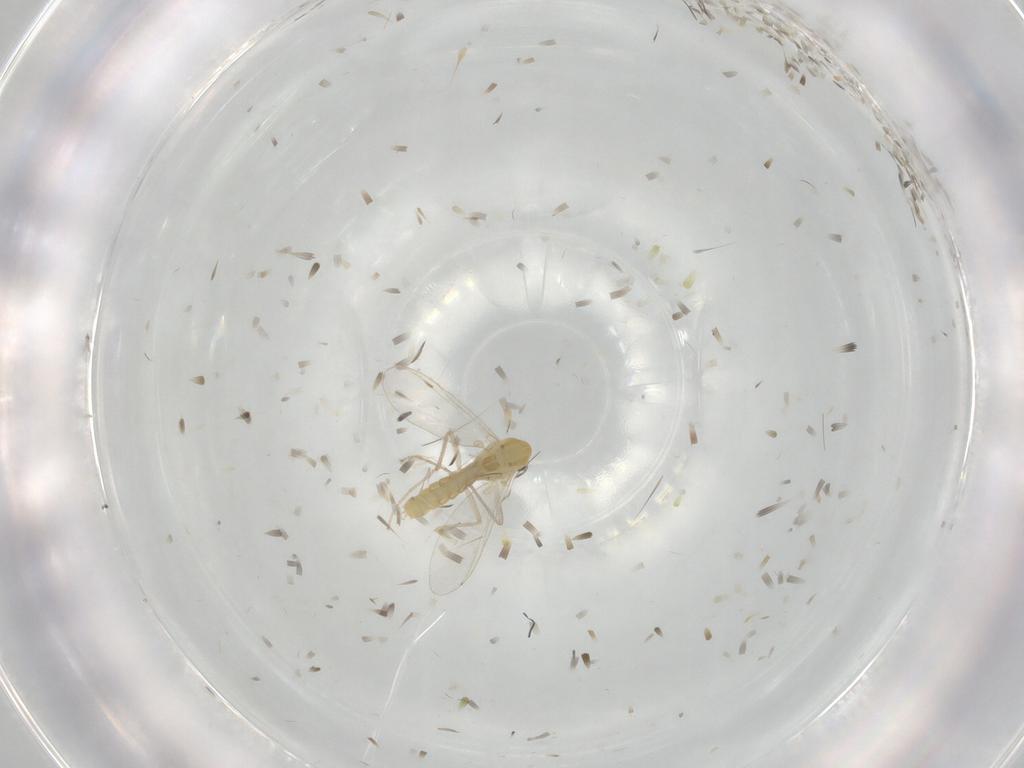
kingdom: Animalia
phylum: Arthropoda
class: Insecta
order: Diptera
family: Chironomidae
